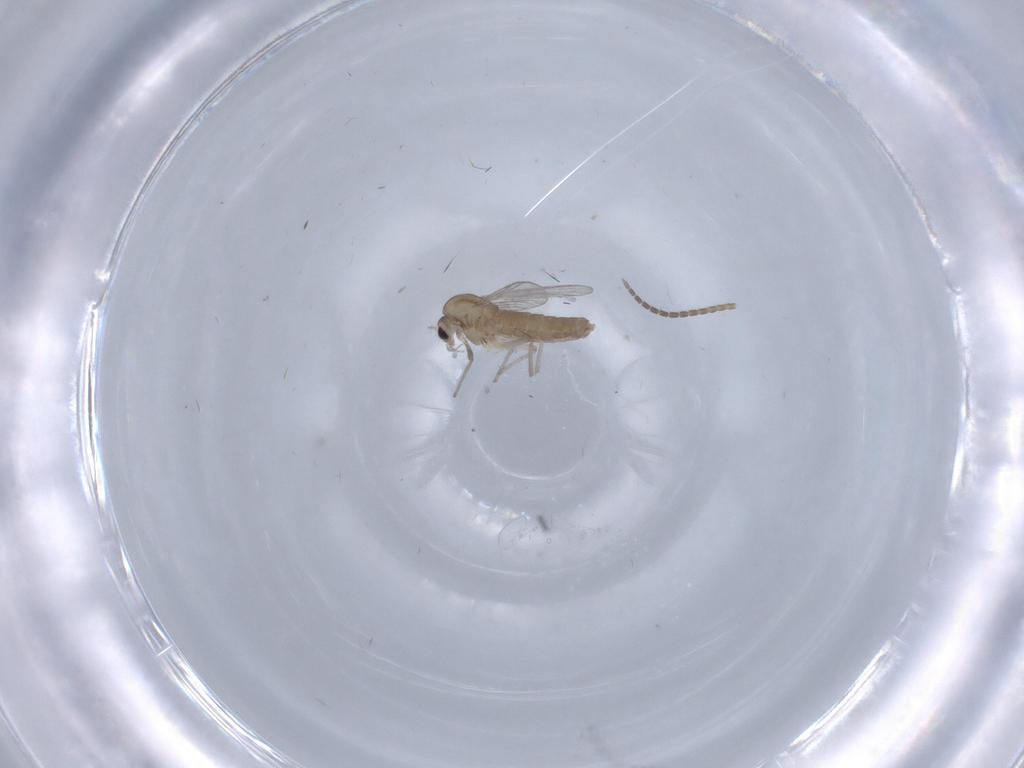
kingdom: Animalia
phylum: Arthropoda
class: Insecta
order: Diptera
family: Chironomidae
